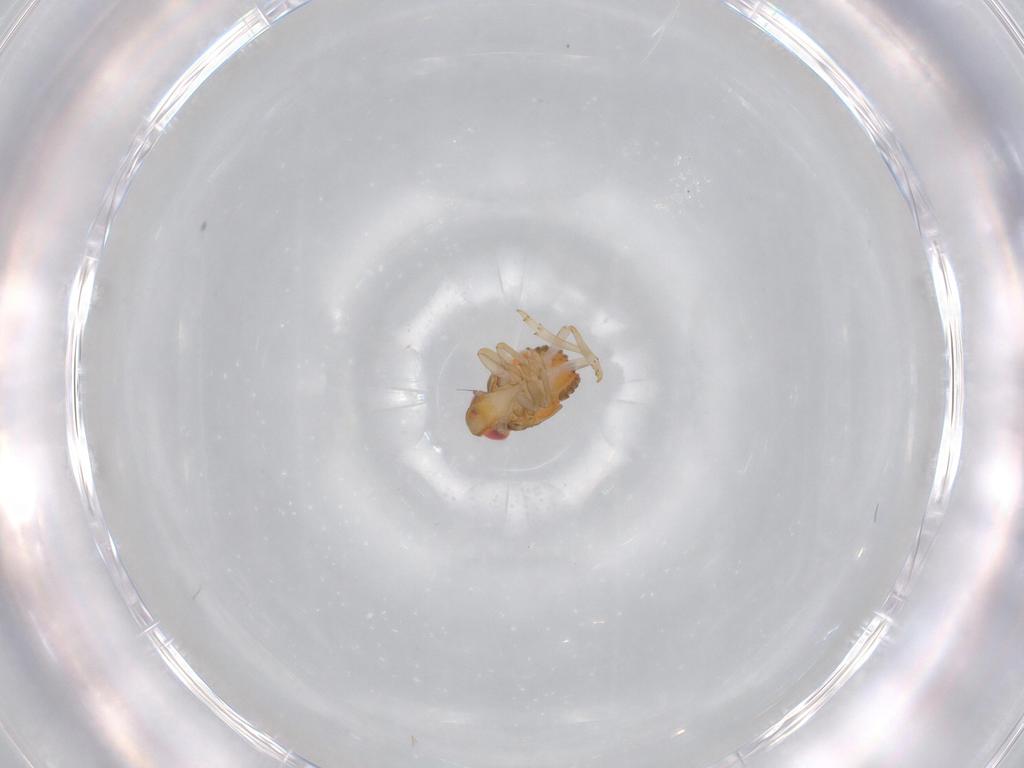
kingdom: Animalia
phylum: Arthropoda
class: Insecta
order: Hemiptera
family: Issidae
